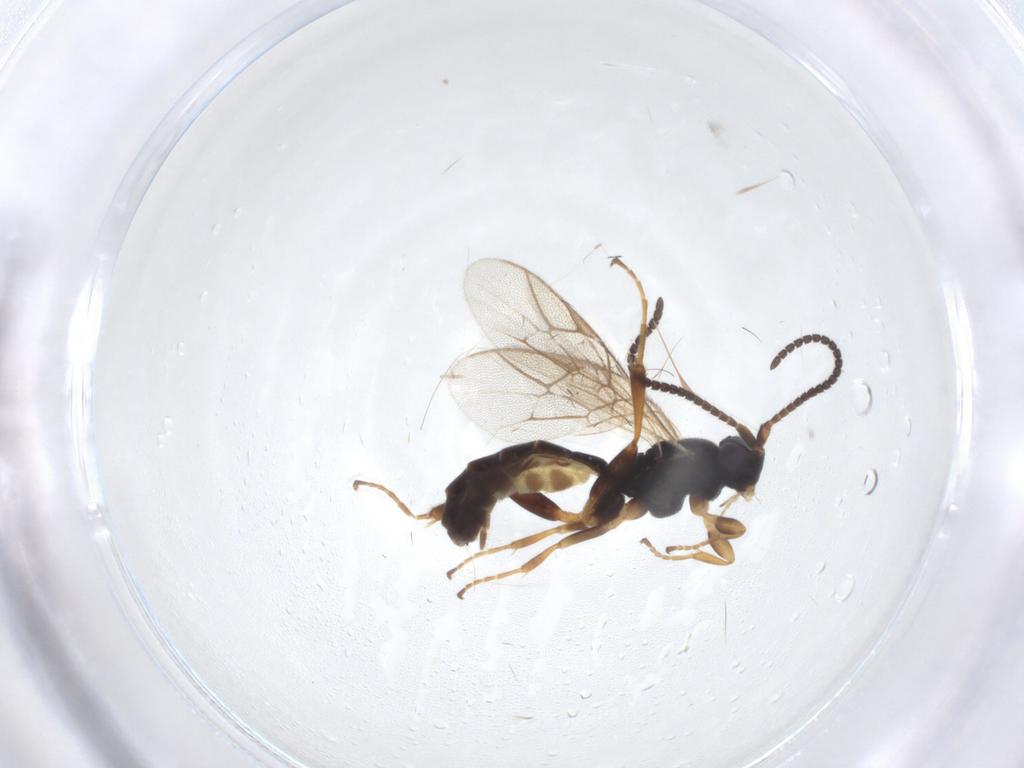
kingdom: Animalia
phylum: Arthropoda
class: Insecta
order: Hymenoptera
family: Ichneumonidae
